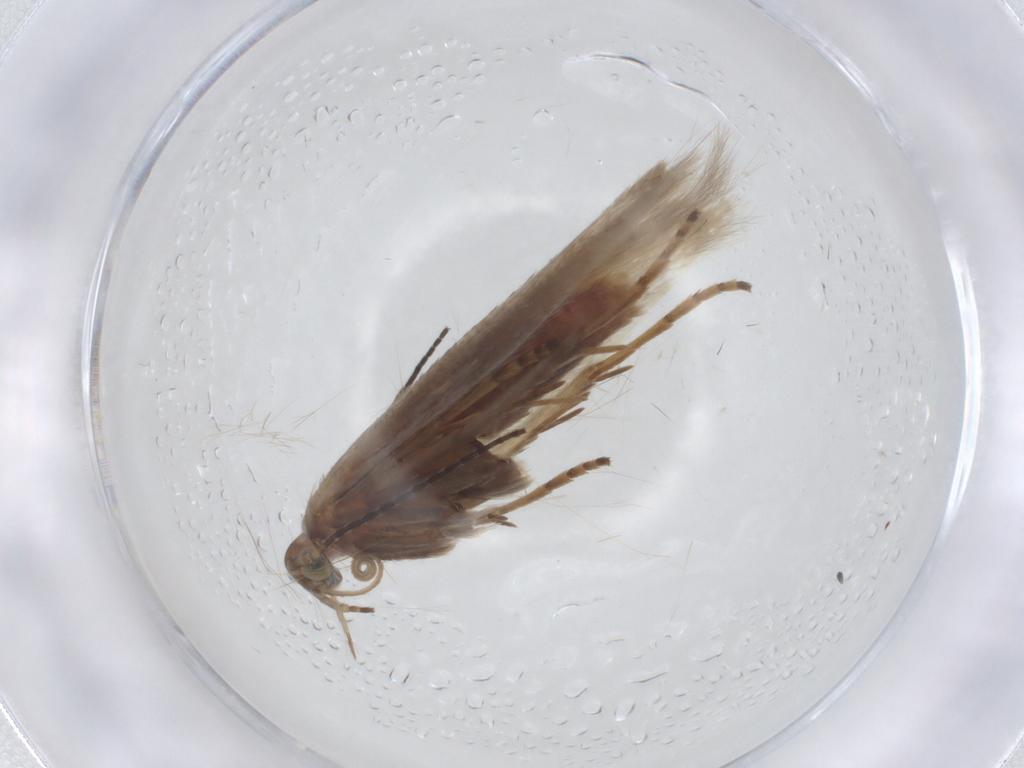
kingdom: Animalia
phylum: Arthropoda
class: Insecta
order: Lepidoptera
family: Coleophoridae
